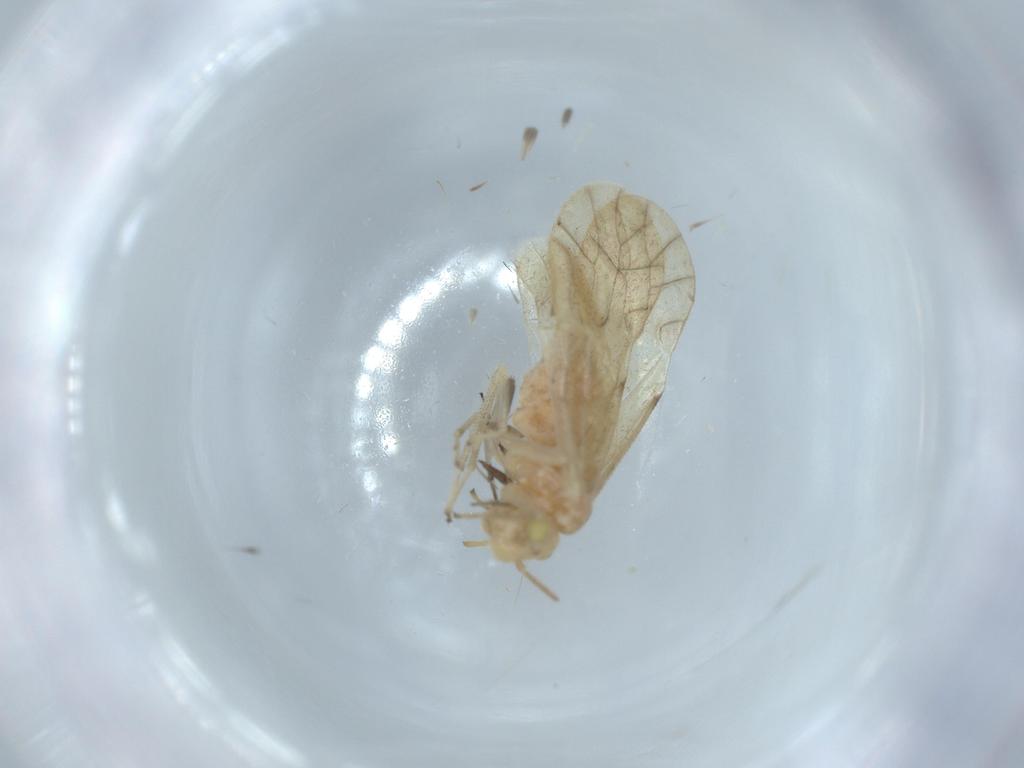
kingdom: Animalia
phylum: Arthropoda
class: Insecta
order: Psocodea
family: Caeciliusidae
